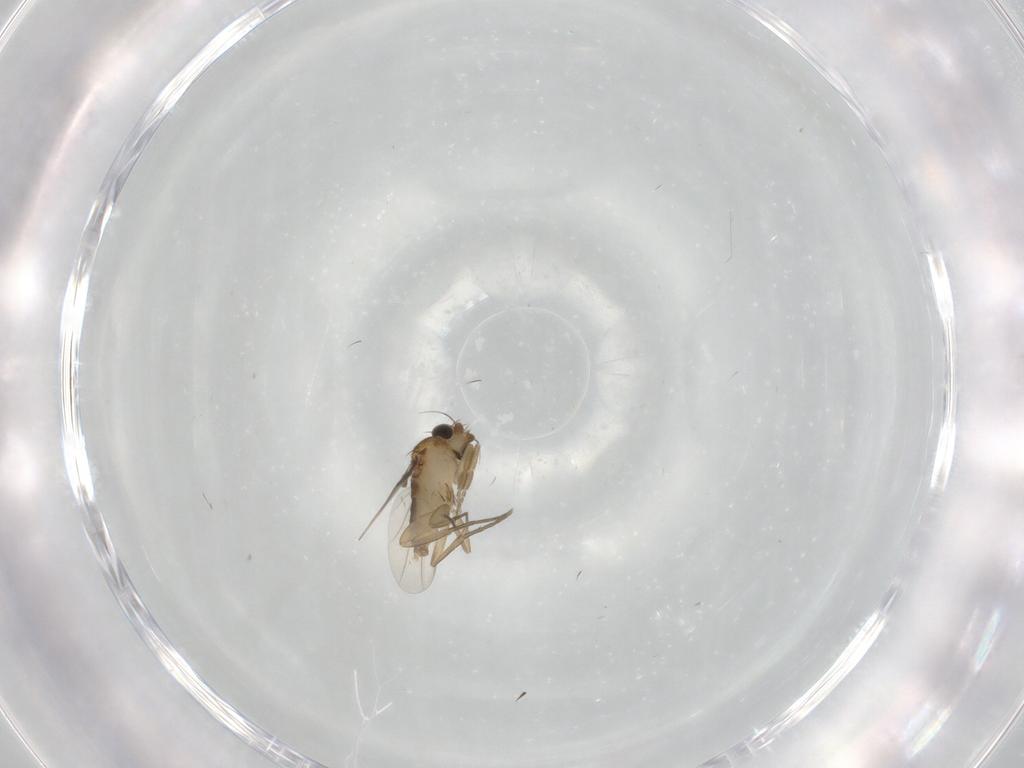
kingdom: Animalia
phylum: Arthropoda
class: Insecta
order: Diptera
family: Phoridae
